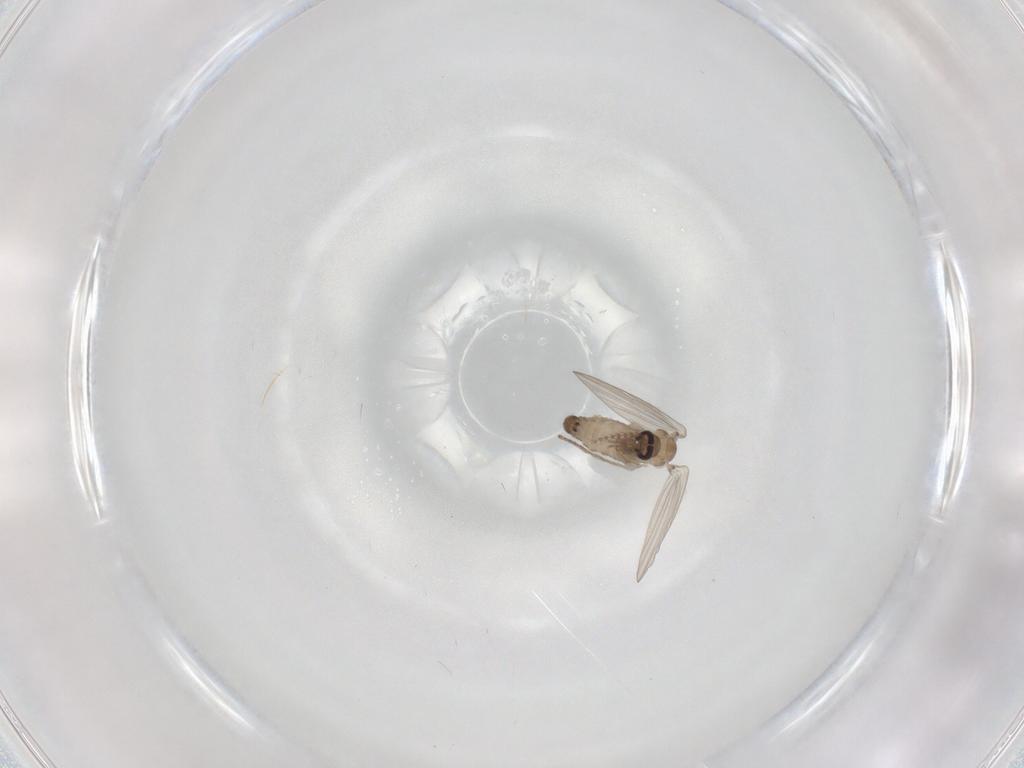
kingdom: Animalia
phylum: Arthropoda
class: Insecta
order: Diptera
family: Psychodidae
